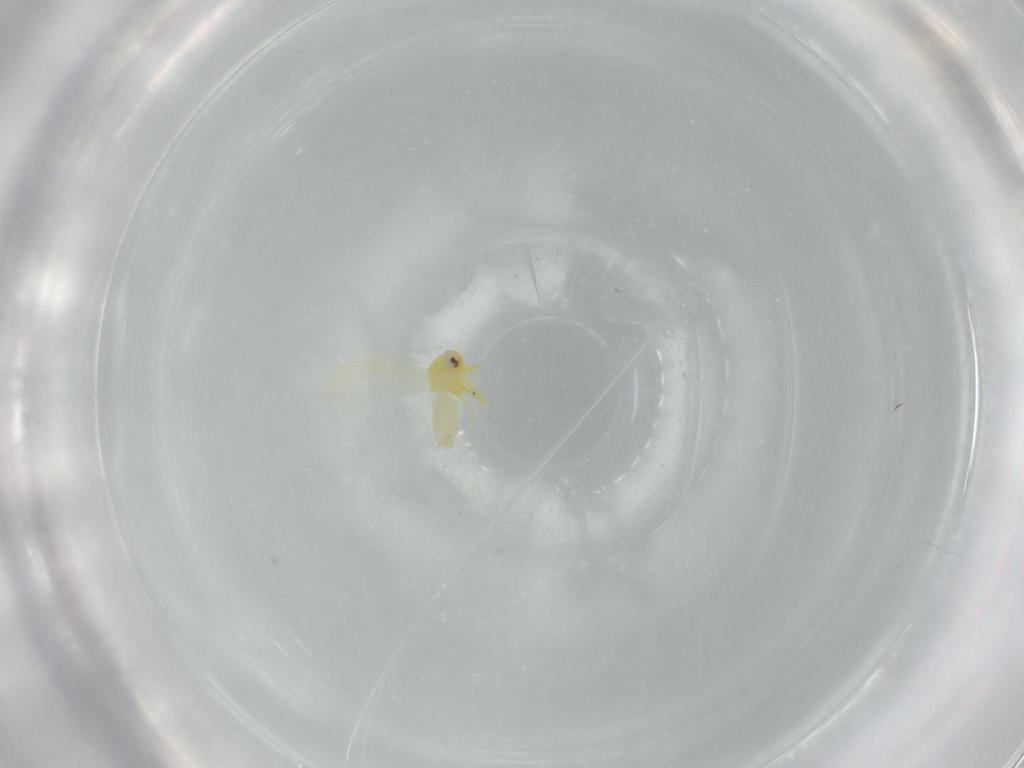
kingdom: Animalia
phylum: Arthropoda
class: Insecta
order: Hemiptera
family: Aleyrodidae
